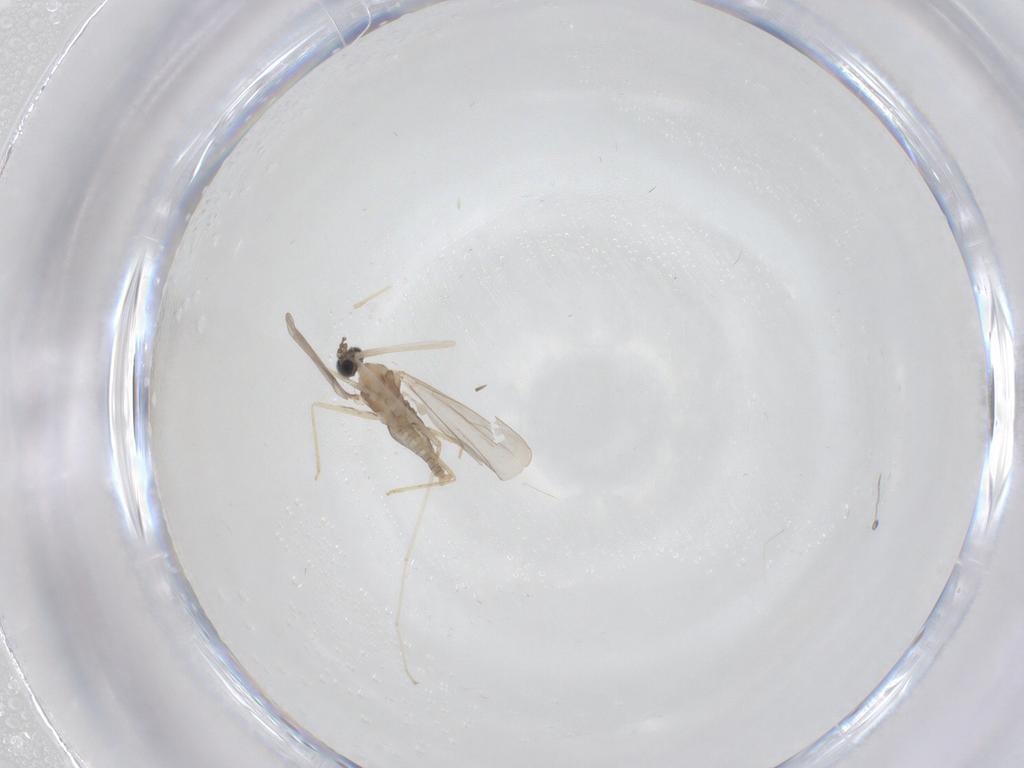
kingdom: Animalia
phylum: Arthropoda
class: Insecta
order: Diptera
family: Cecidomyiidae
